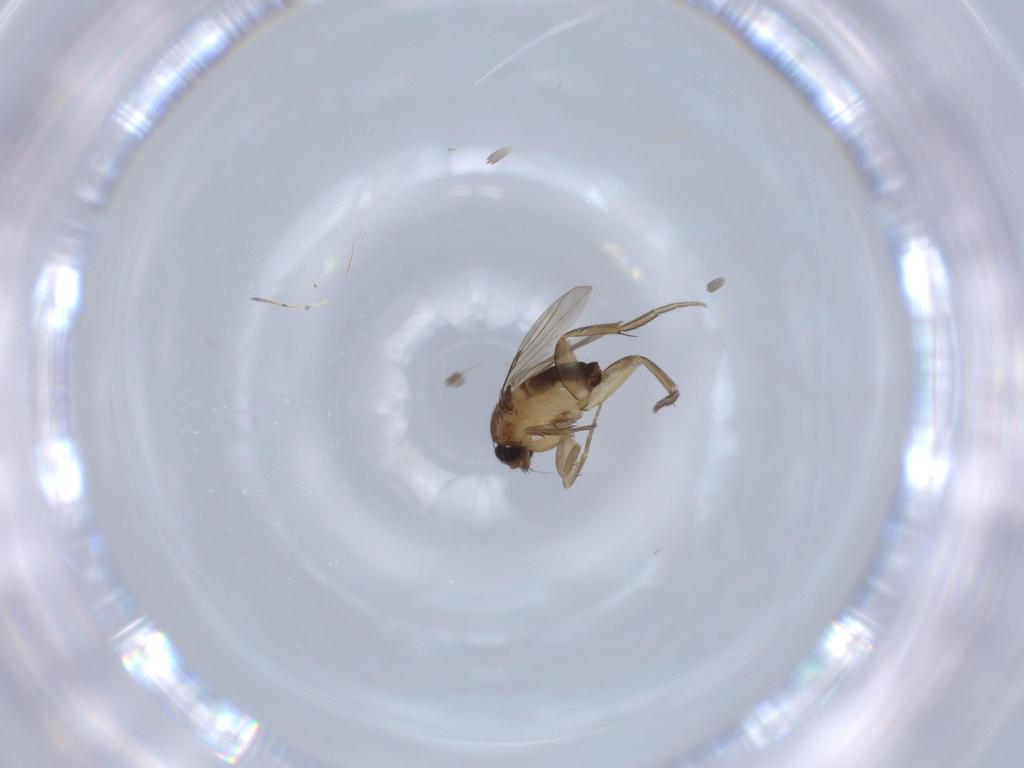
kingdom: Animalia
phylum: Arthropoda
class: Insecta
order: Diptera
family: Phoridae
